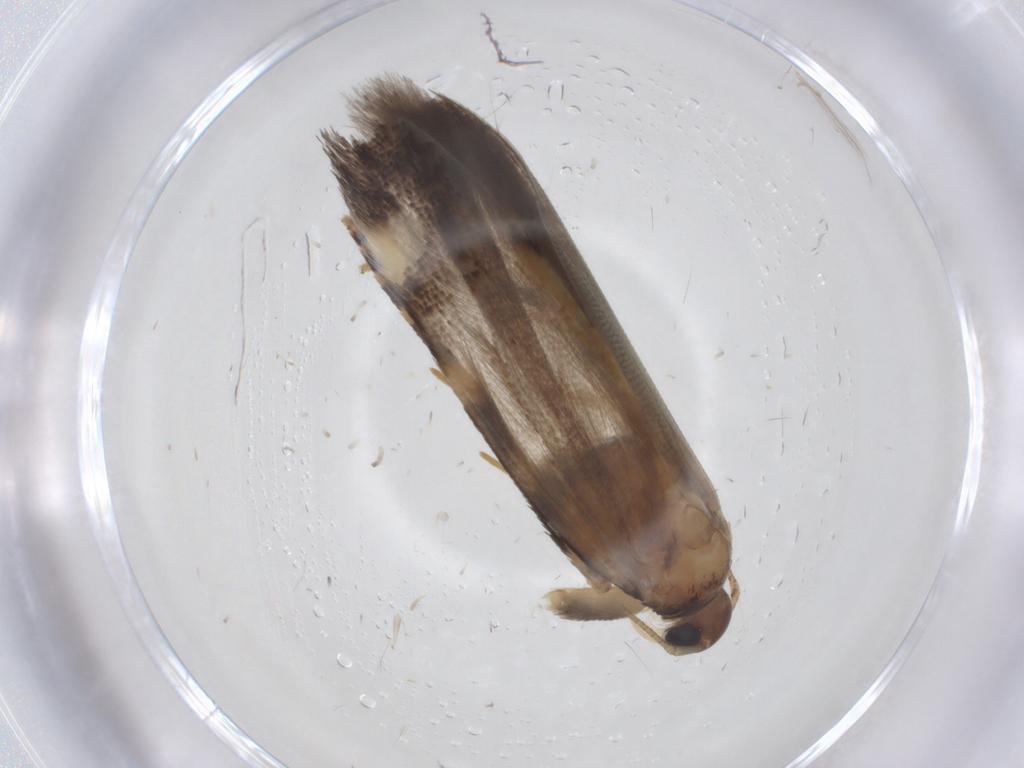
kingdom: Animalia
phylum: Arthropoda
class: Insecta
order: Lepidoptera
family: Gelechiidae
